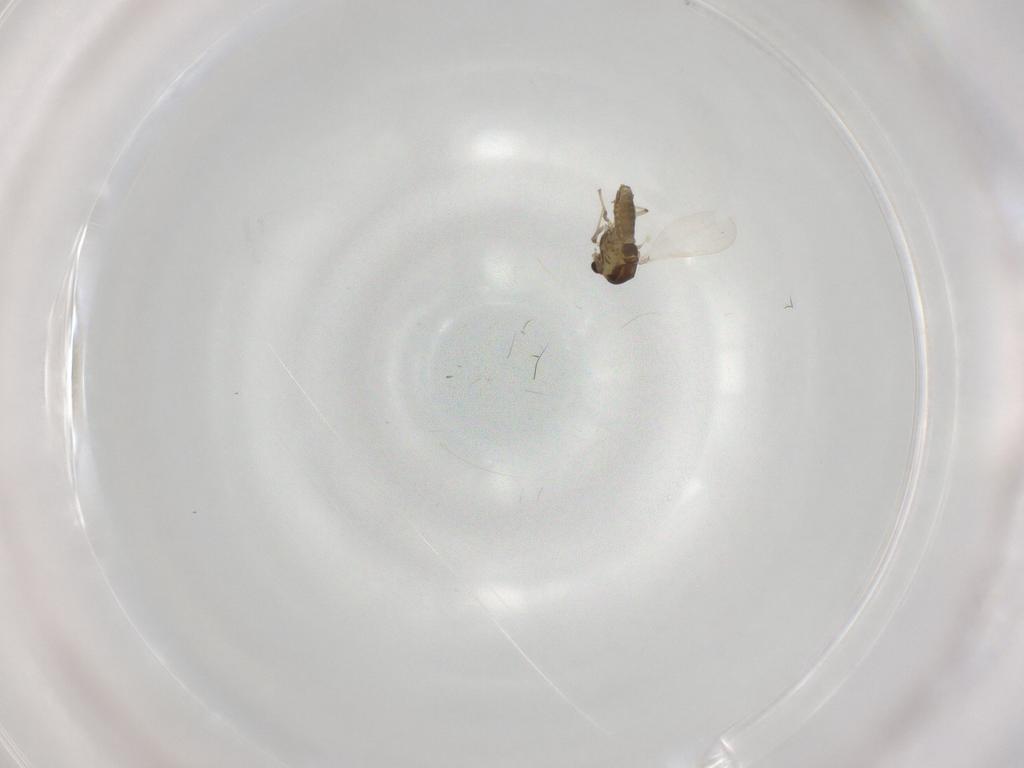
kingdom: Animalia
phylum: Arthropoda
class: Insecta
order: Diptera
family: Chironomidae
